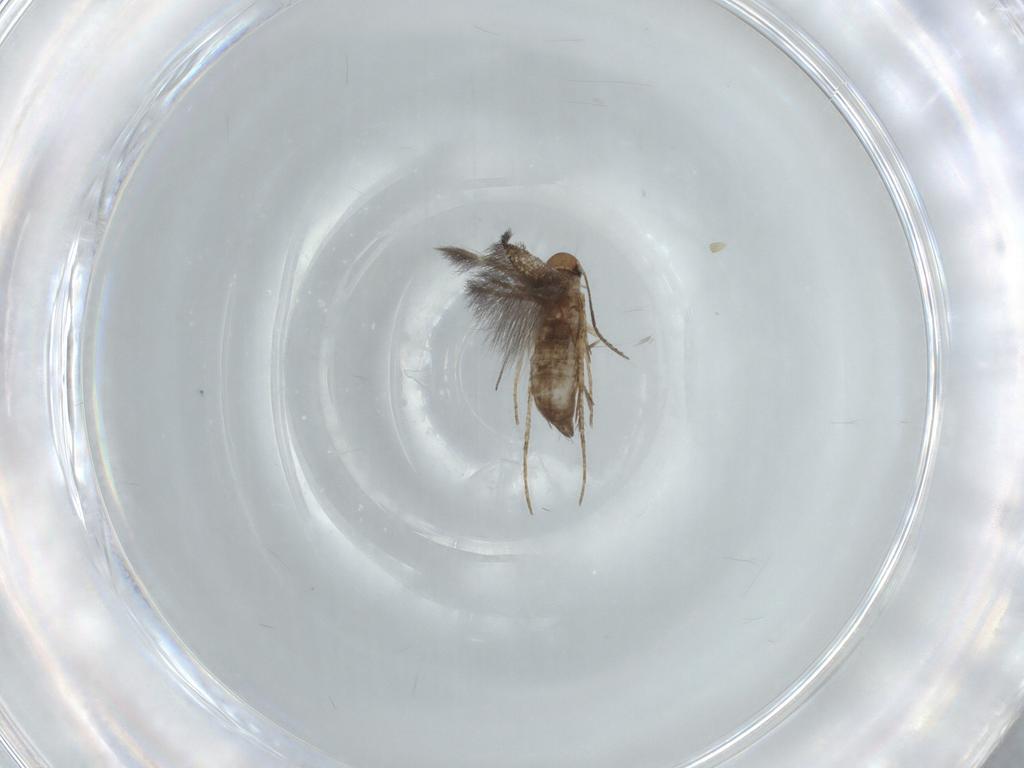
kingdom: Animalia
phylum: Arthropoda
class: Insecta
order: Lepidoptera
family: Pyralidae
